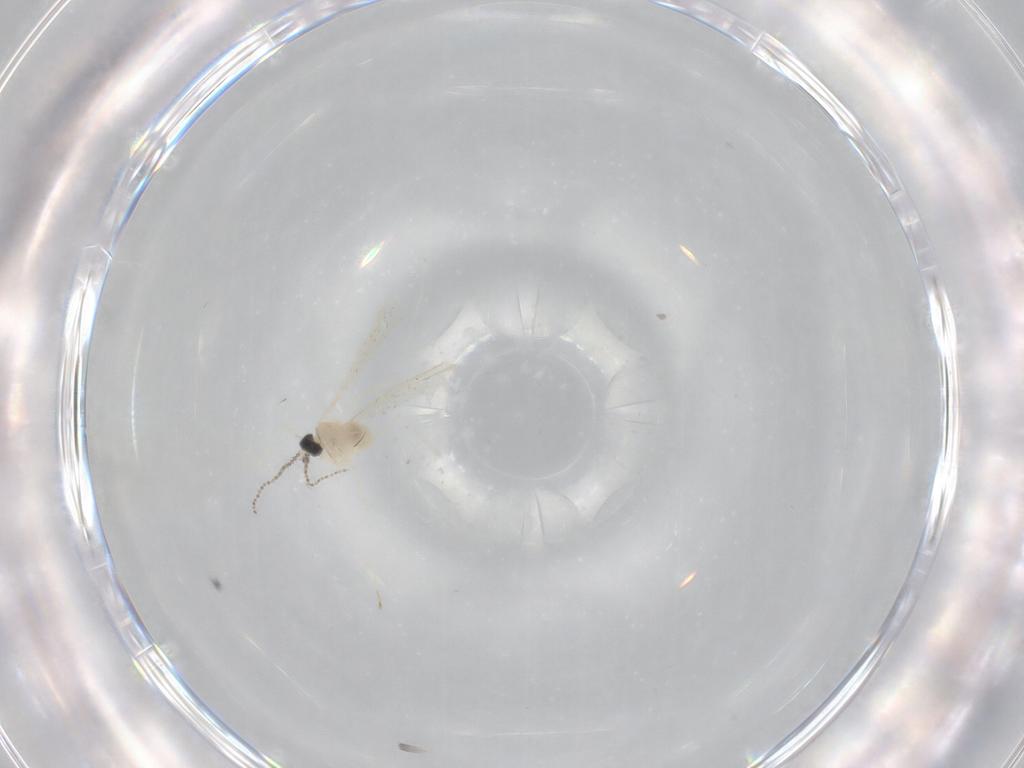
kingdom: Animalia
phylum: Arthropoda
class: Insecta
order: Diptera
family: Cecidomyiidae
